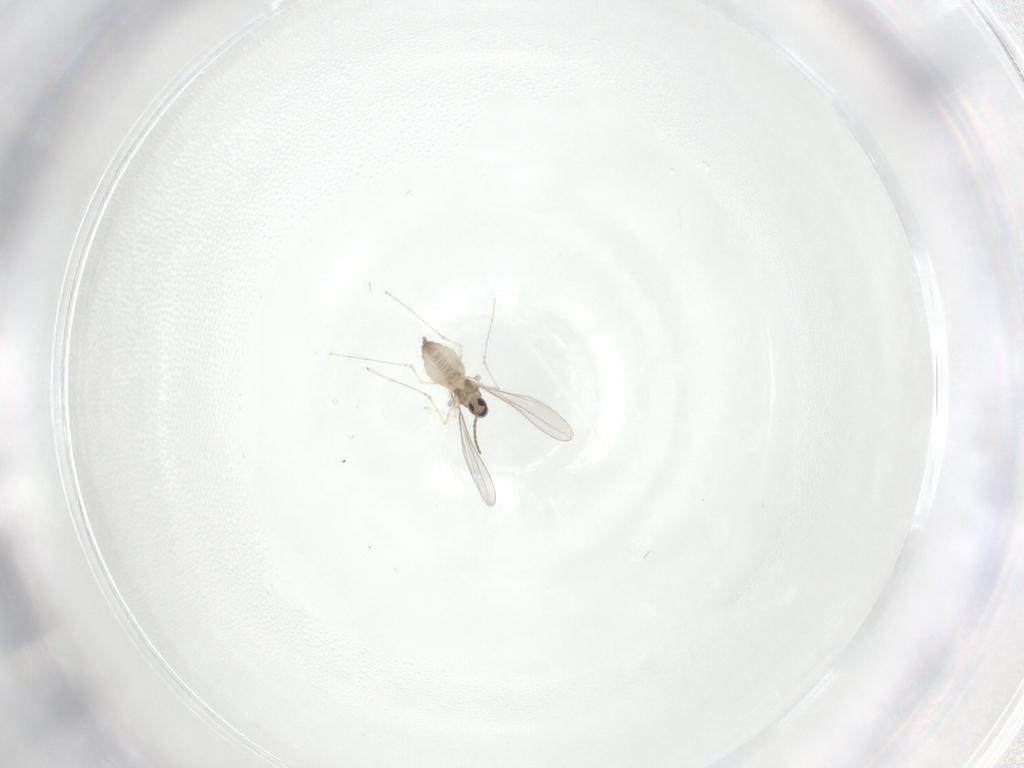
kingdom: Animalia
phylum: Arthropoda
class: Insecta
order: Diptera
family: Cecidomyiidae
